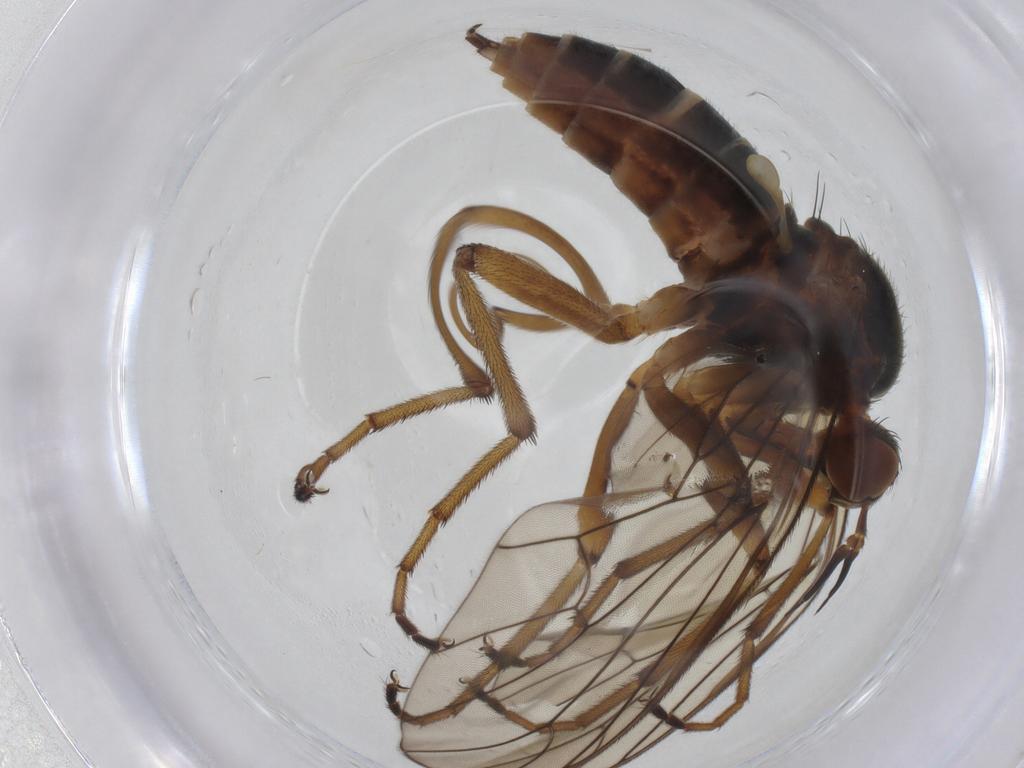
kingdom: Animalia
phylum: Arthropoda
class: Insecta
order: Diptera
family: Empididae
